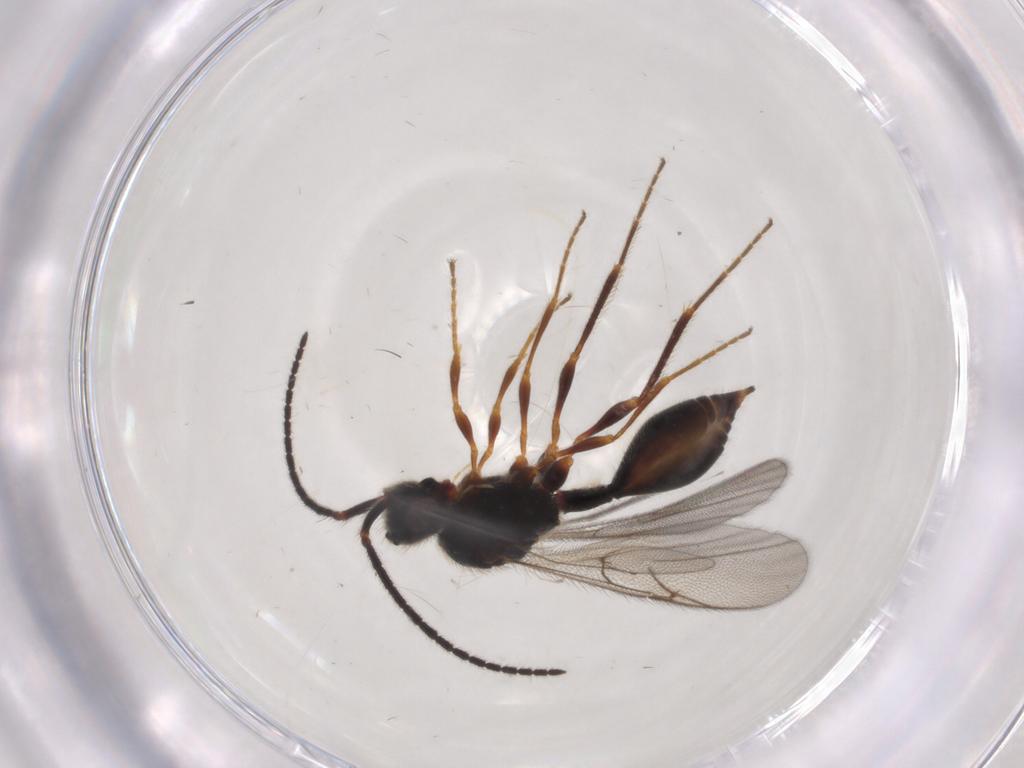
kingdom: Animalia
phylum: Arthropoda
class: Insecta
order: Hymenoptera
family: Diapriidae
